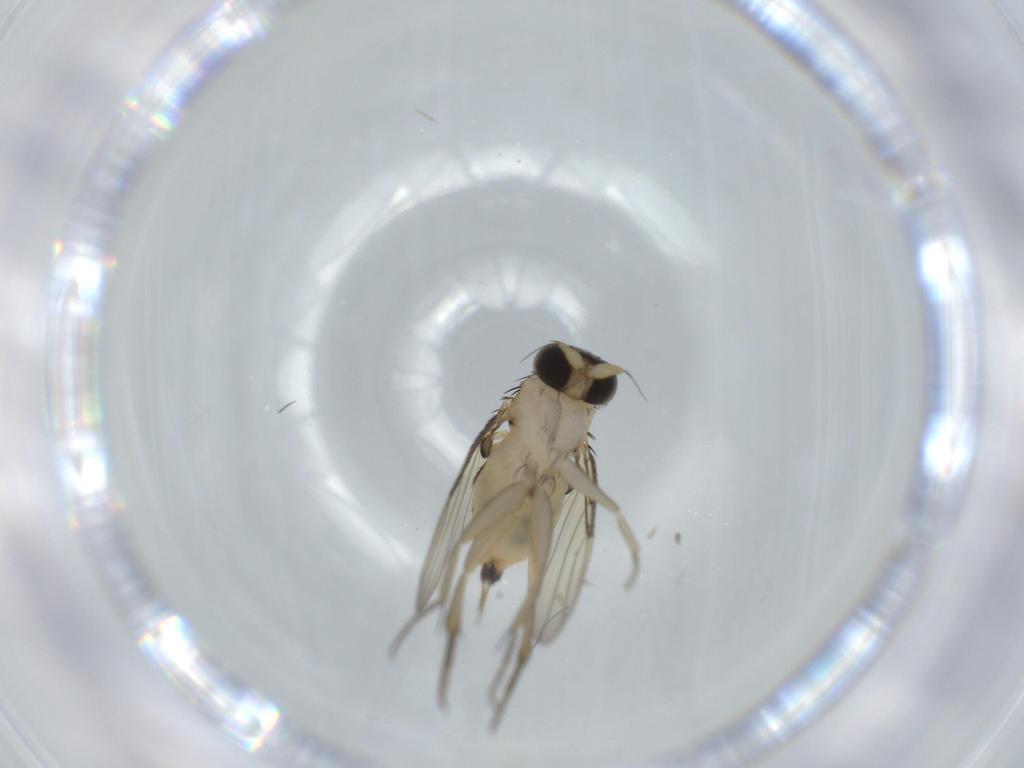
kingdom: Animalia
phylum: Arthropoda
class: Insecta
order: Diptera
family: Phoridae
